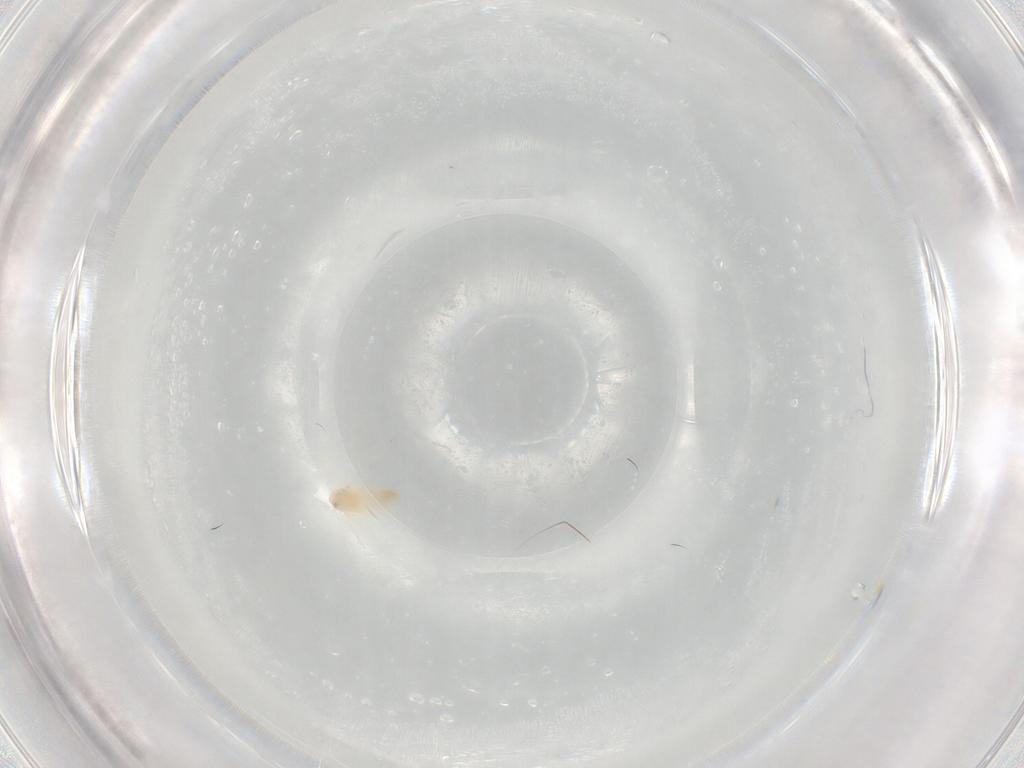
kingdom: Animalia
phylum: Arthropoda
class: Insecta
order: Hemiptera
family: Aleyrodidae
